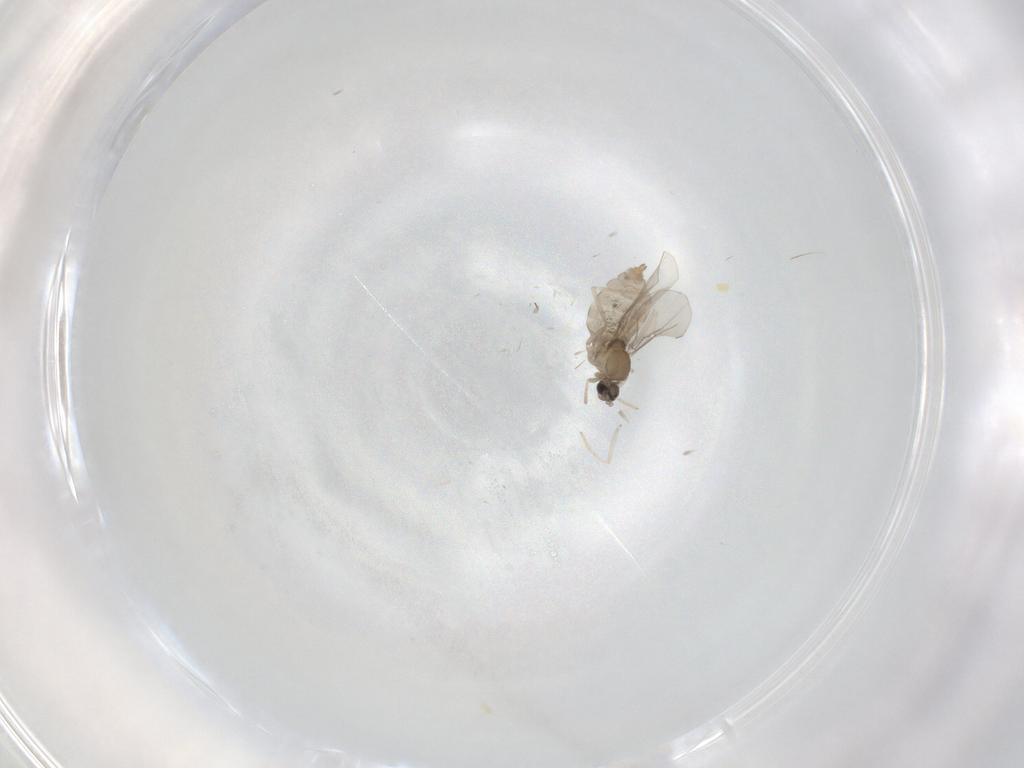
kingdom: Animalia
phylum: Arthropoda
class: Insecta
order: Diptera
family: Cecidomyiidae
